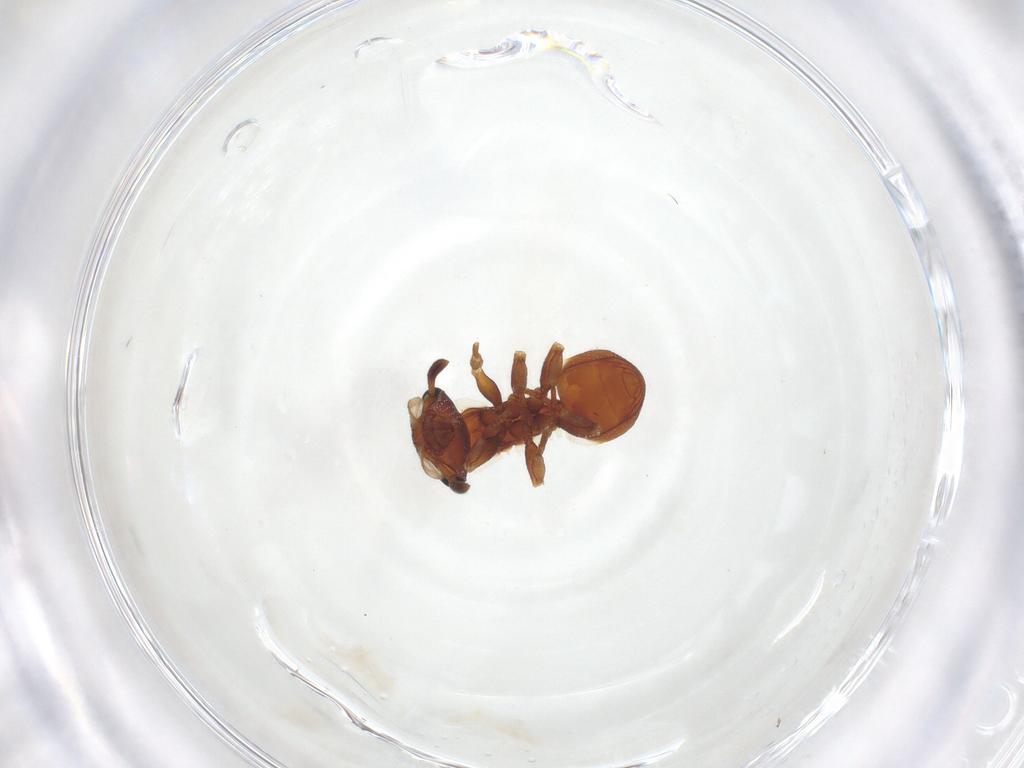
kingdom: Animalia
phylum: Arthropoda
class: Insecta
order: Hymenoptera
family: Formicidae
